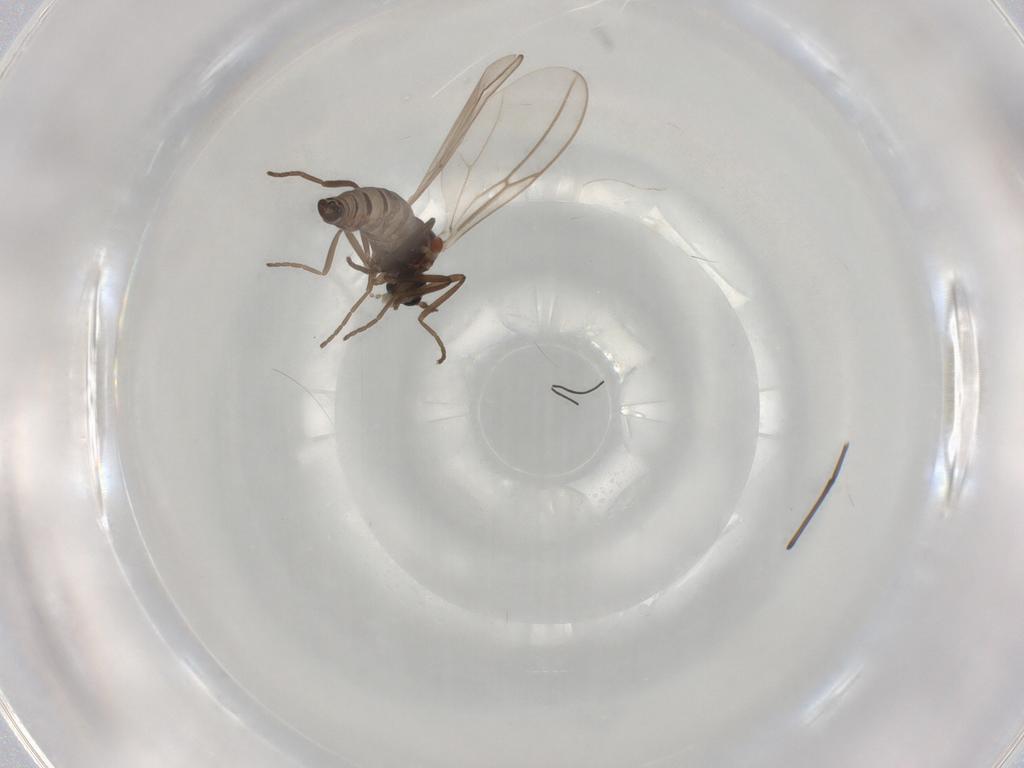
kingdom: Animalia
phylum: Arthropoda
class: Insecta
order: Diptera
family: Cecidomyiidae
